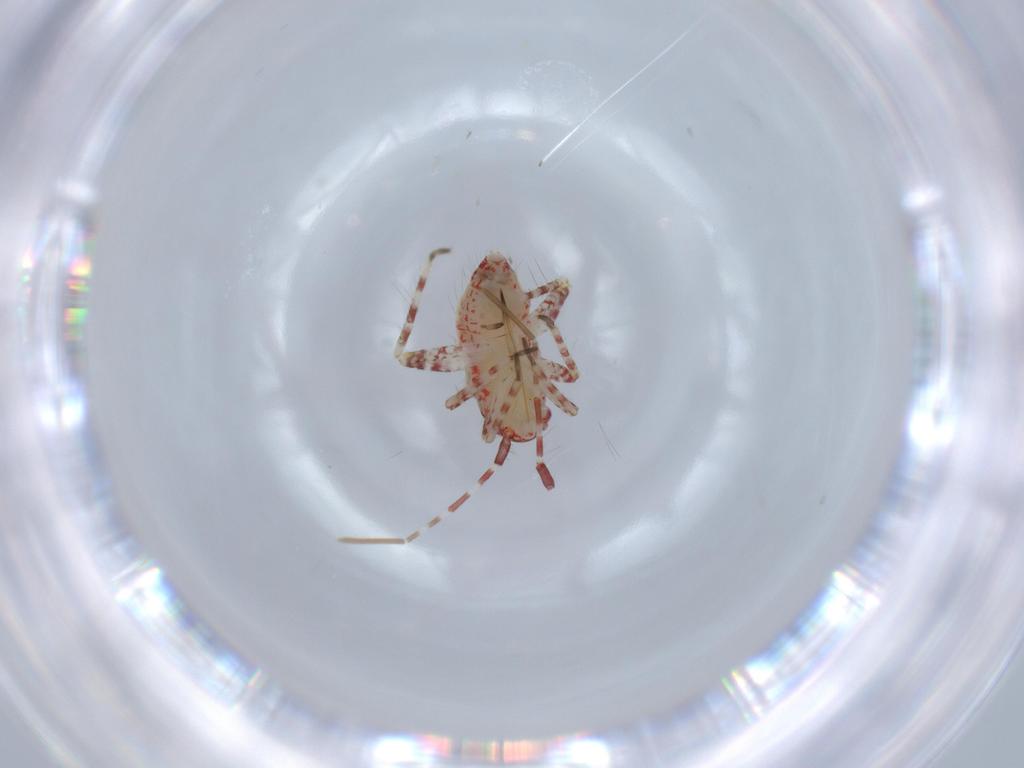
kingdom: Animalia
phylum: Arthropoda
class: Insecta
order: Hemiptera
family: Miridae
